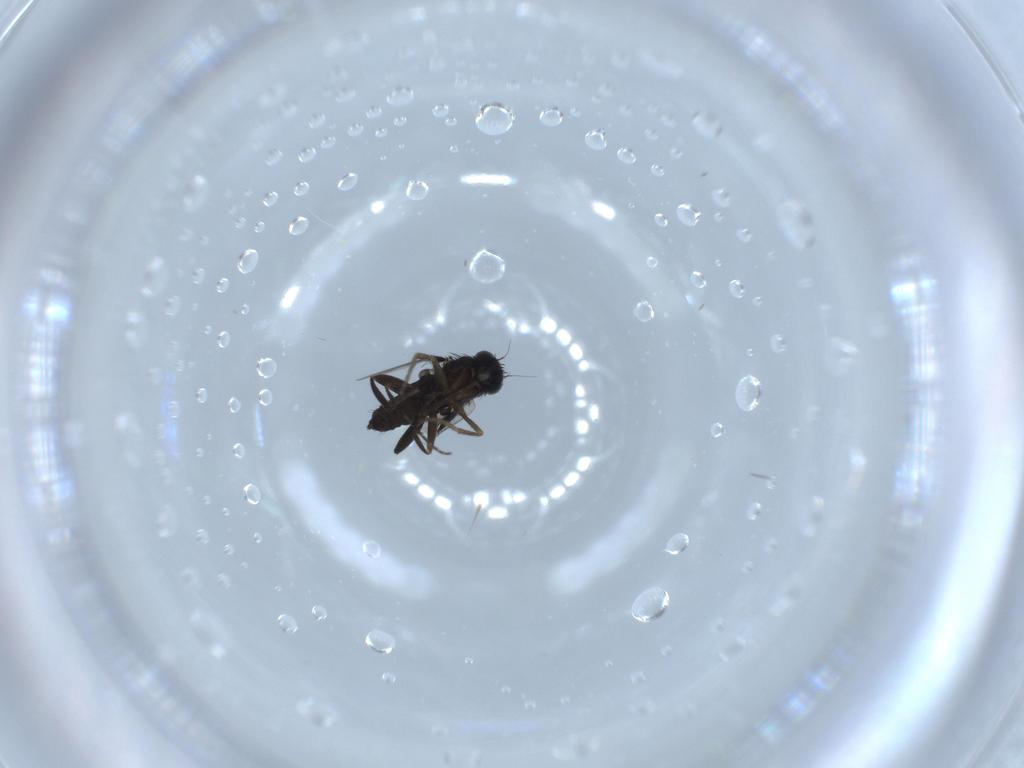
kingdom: Animalia
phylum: Arthropoda
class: Insecta
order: Diptera
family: Phoridae
